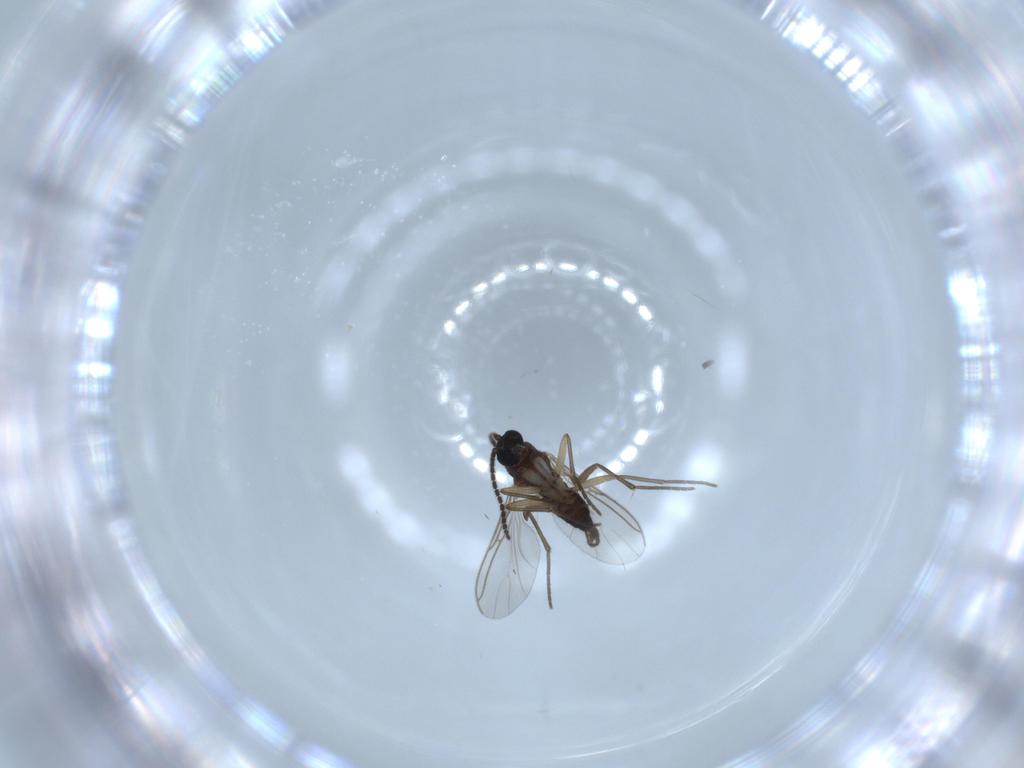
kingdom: Animalia
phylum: Arthropoda
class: Insecta
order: Diptera
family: Sciaridae
